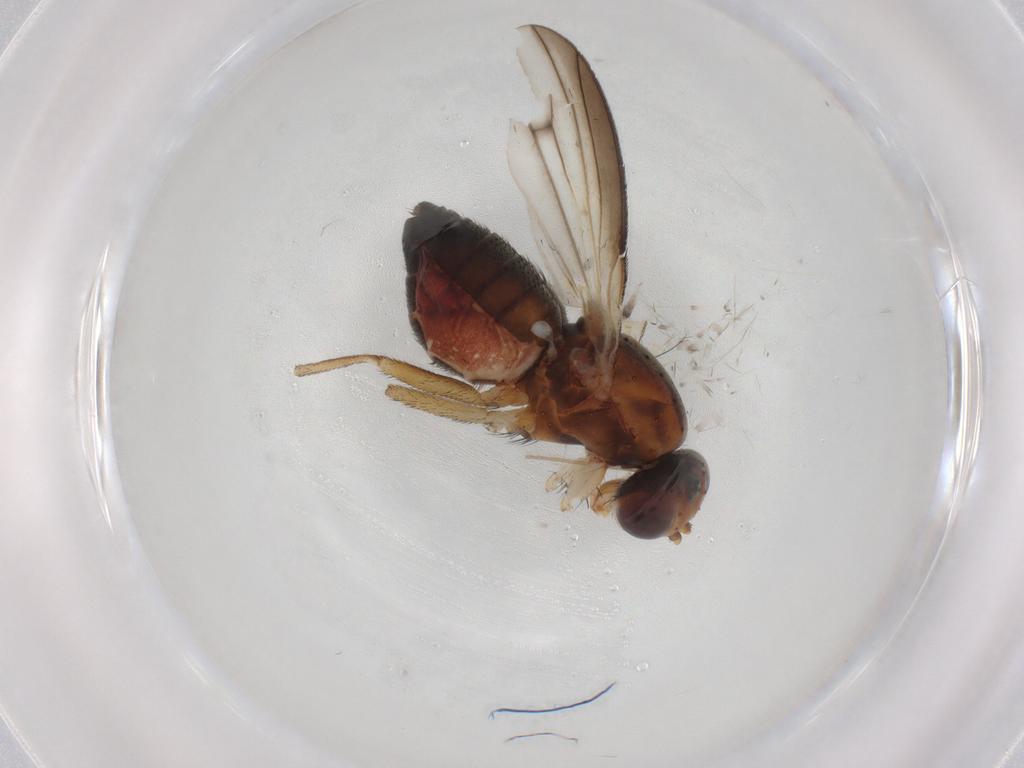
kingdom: Animalia
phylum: Arthropoda
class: Insecta
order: Diptera
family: Heleomyzidae
